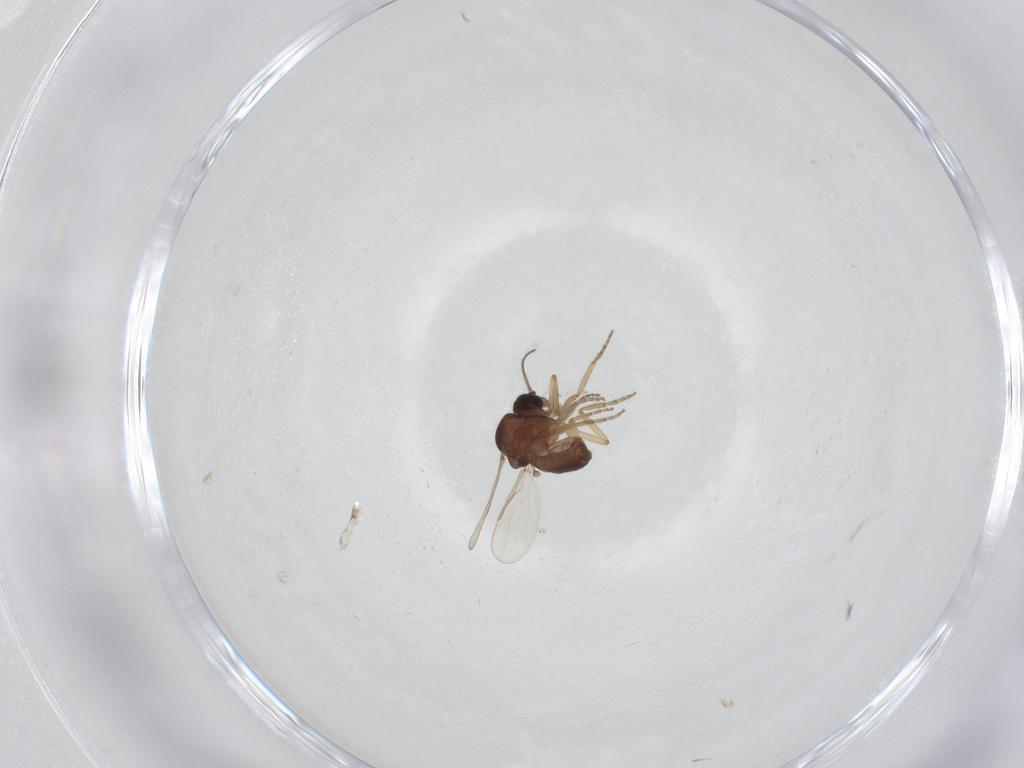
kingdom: Animalia
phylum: Arthropoda
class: Insecta
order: Diptera
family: Ceratopogonidae
